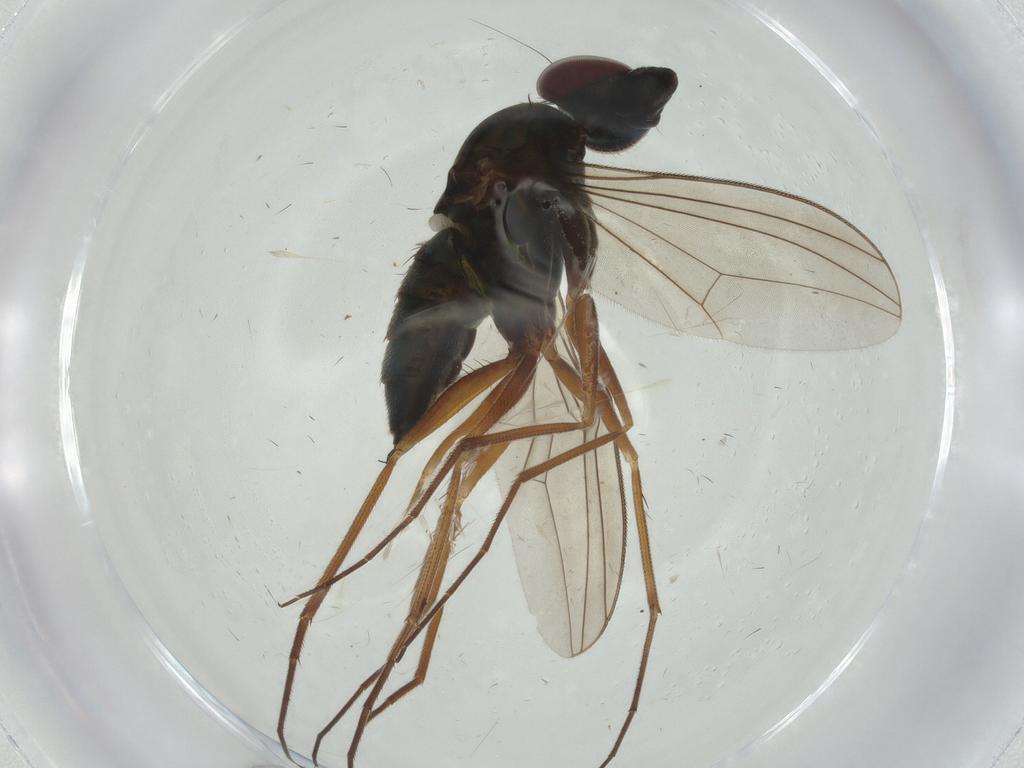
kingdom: Animalia
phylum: Arthropoda
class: Insecta
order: Diptera
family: Dolichopodidae
